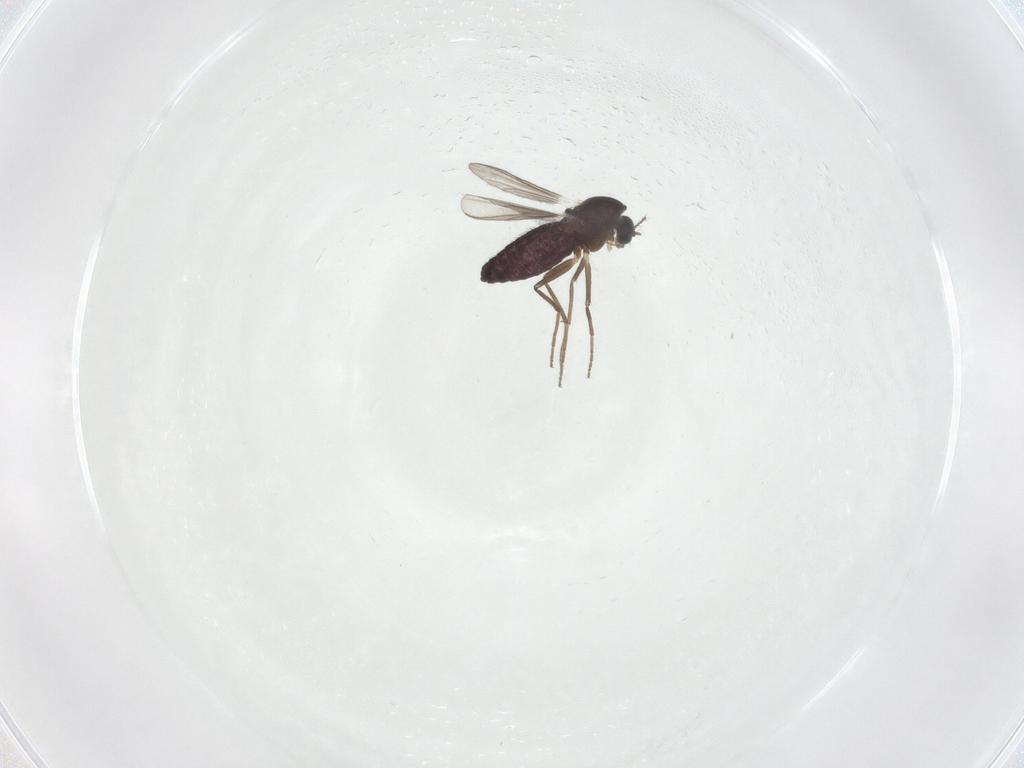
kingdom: Animalia
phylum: Arthropoda
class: Insecta
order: Diptera
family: Chironomidae
